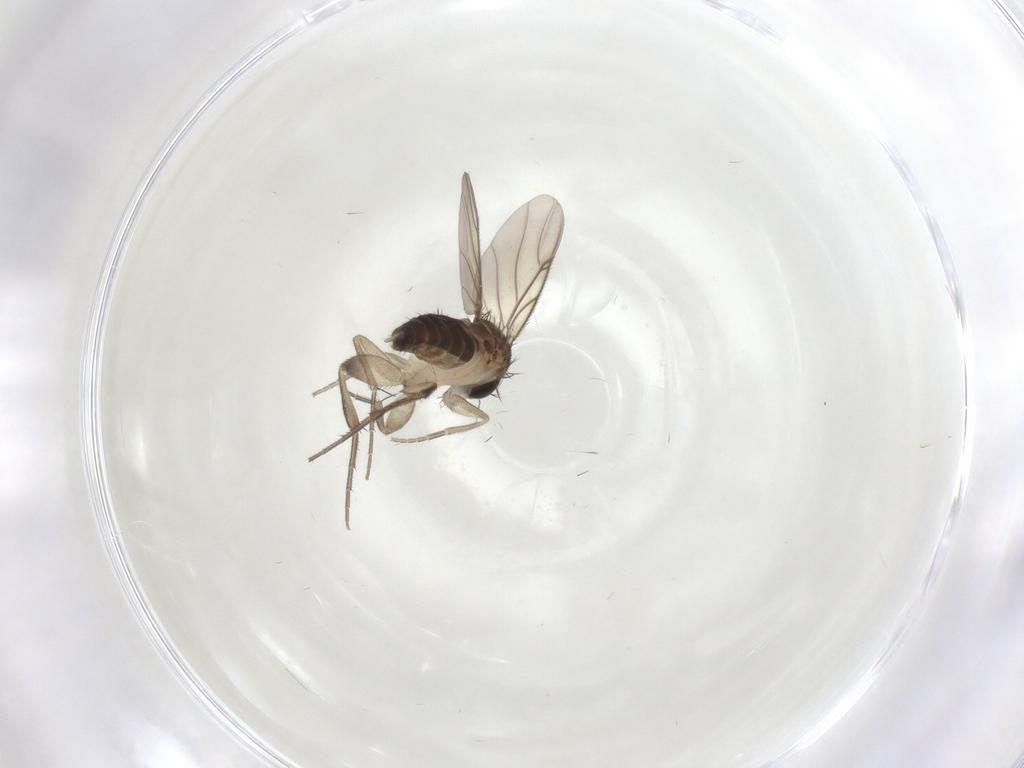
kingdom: Animalia
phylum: Arthropoda
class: Insecta
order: Diptera
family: Phoridae
